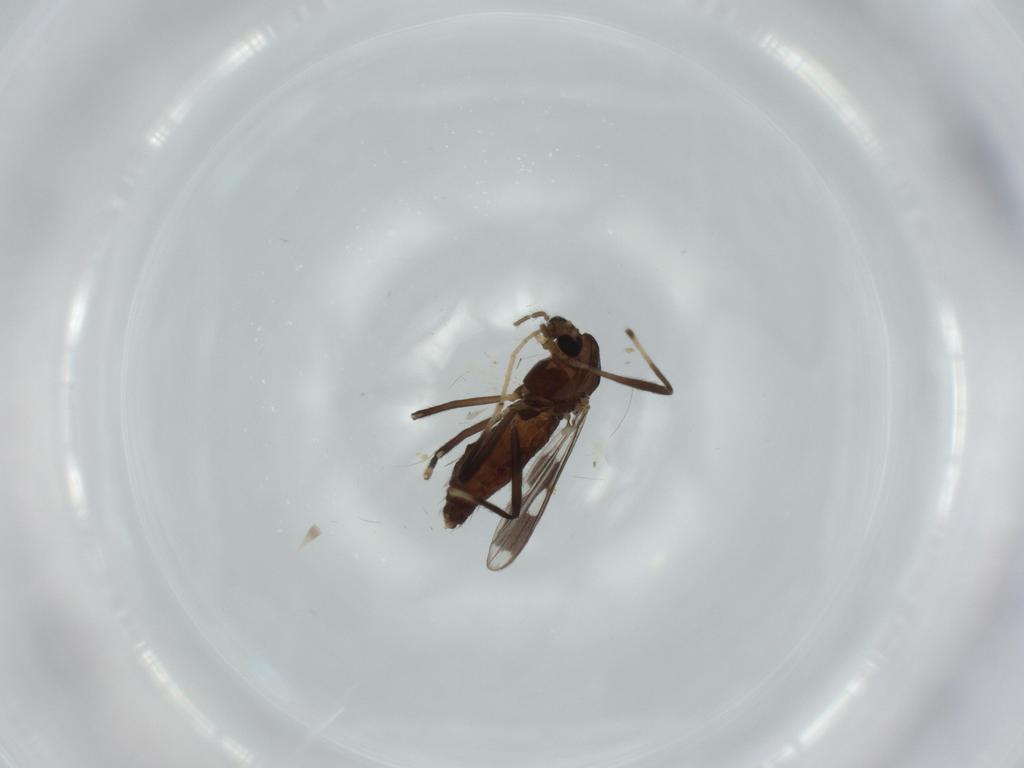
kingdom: Animalia
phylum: Arthropoda
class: Insecta
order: Diptera
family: Chironomidae
